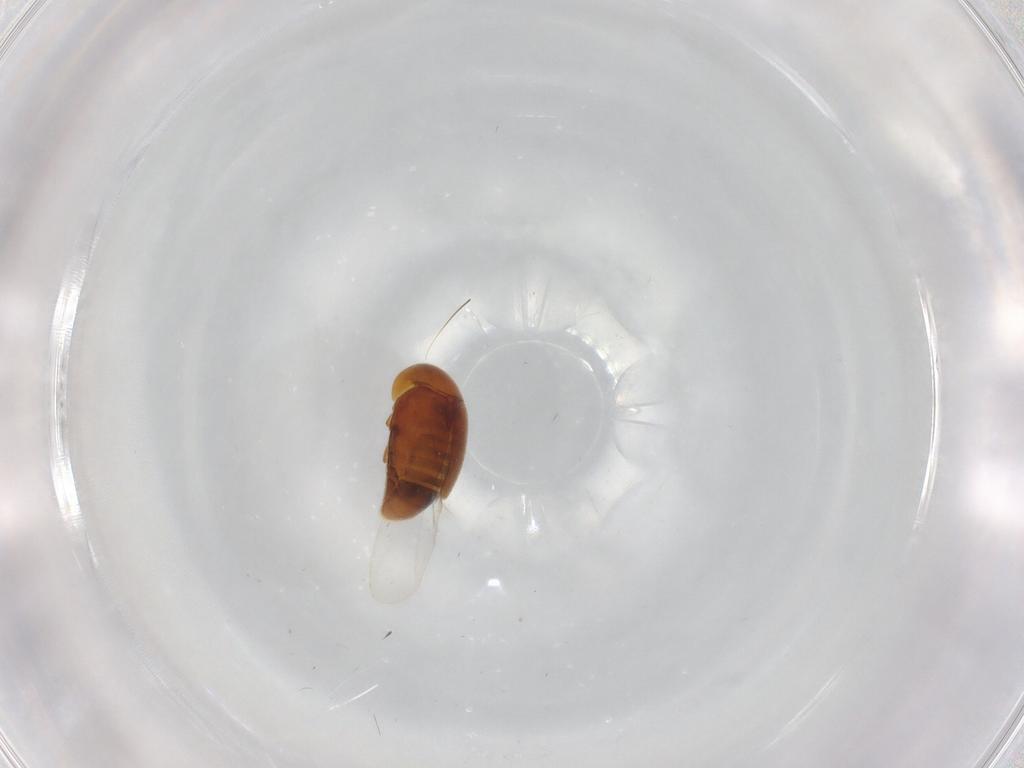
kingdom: Animalia
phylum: Arthropoda
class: Insecta
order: Coleoptera
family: Corylophidae
